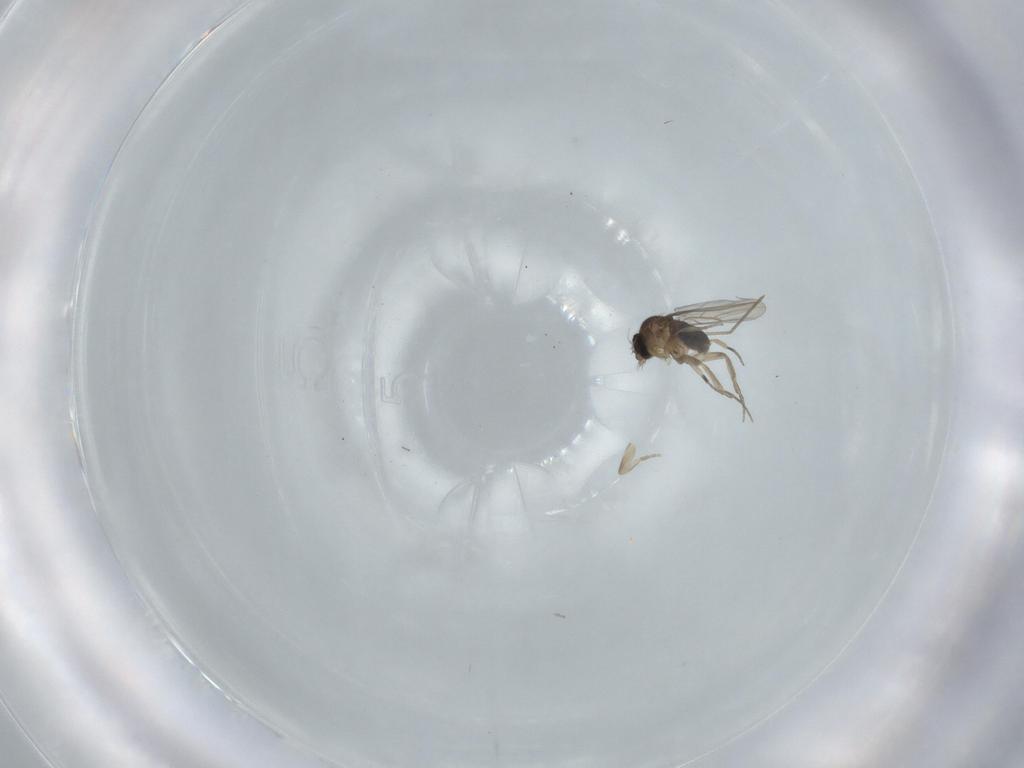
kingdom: Animalia
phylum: Arthropoda
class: Insecta
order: Diptera
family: Phoridae
